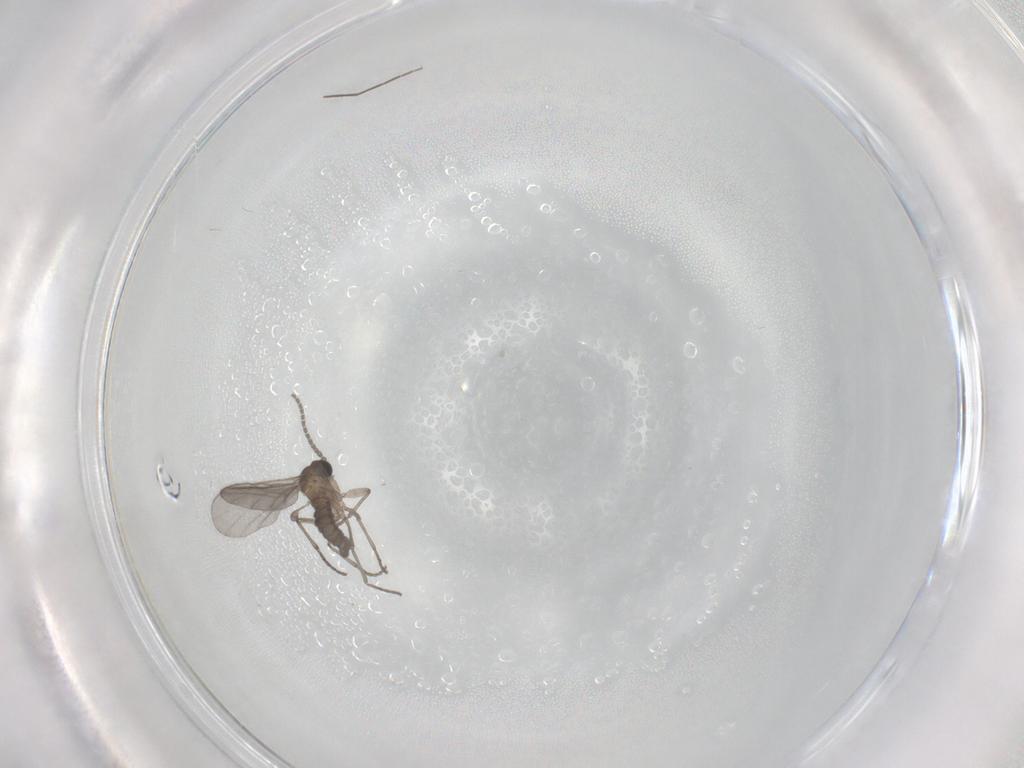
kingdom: Animalia
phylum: Arthropoda
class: Insecta
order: Diptera
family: Sciaridae
